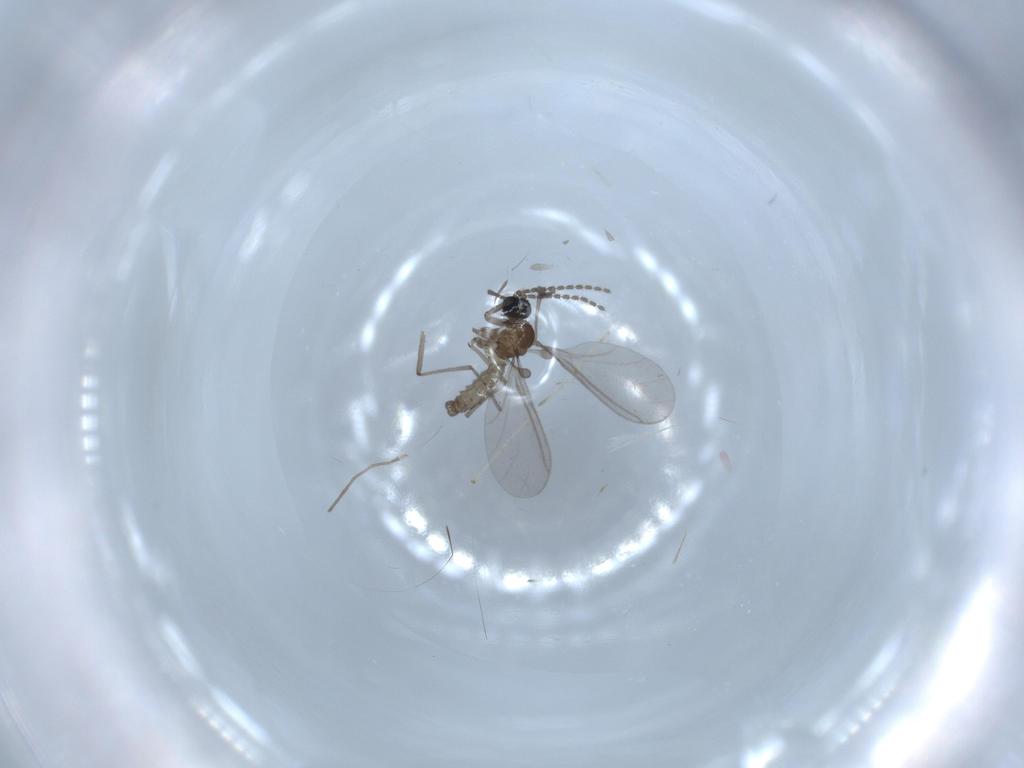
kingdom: Animalia
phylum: Arthropoda
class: Insecta
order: Diptera
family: Sciaridae
